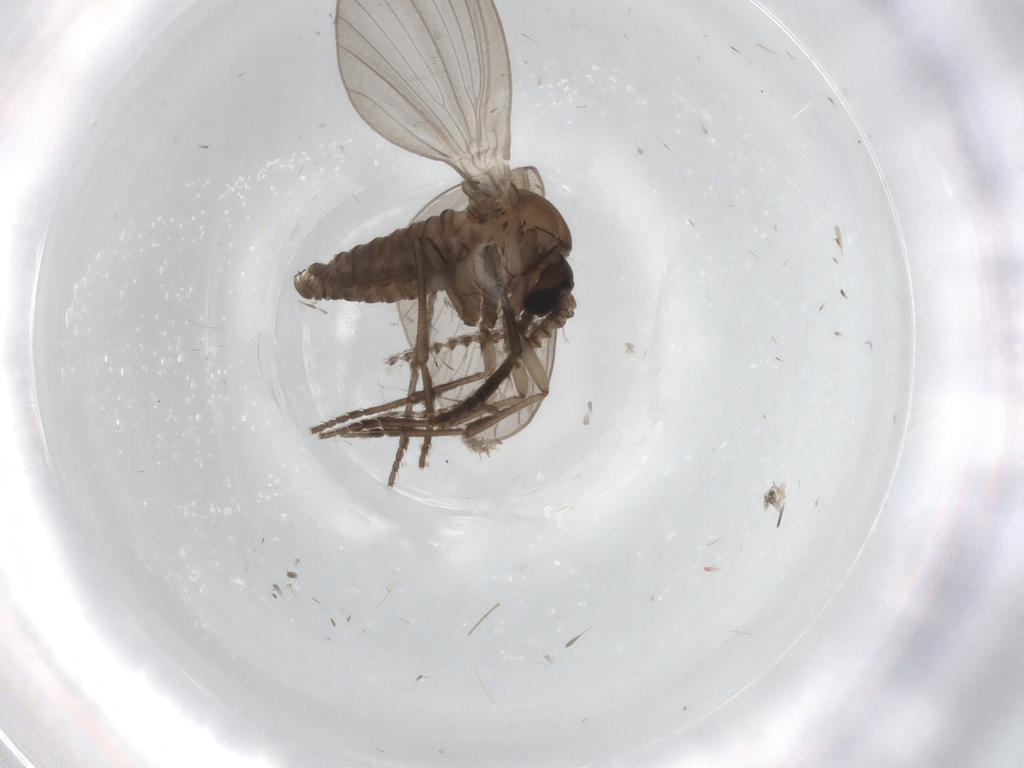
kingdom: Animalia
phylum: Arthropoda
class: Insecta
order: Diptera
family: Psychodidae
